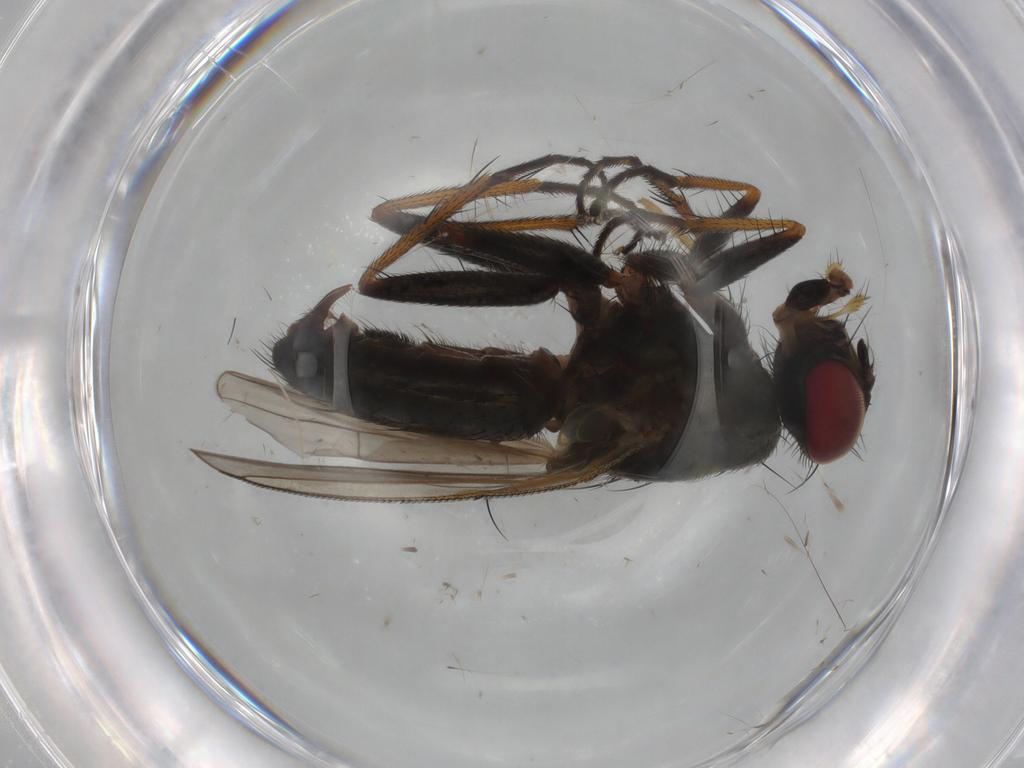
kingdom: Animalia
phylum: Arthropoda
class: Insecta
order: Diptera
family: Muscidae
